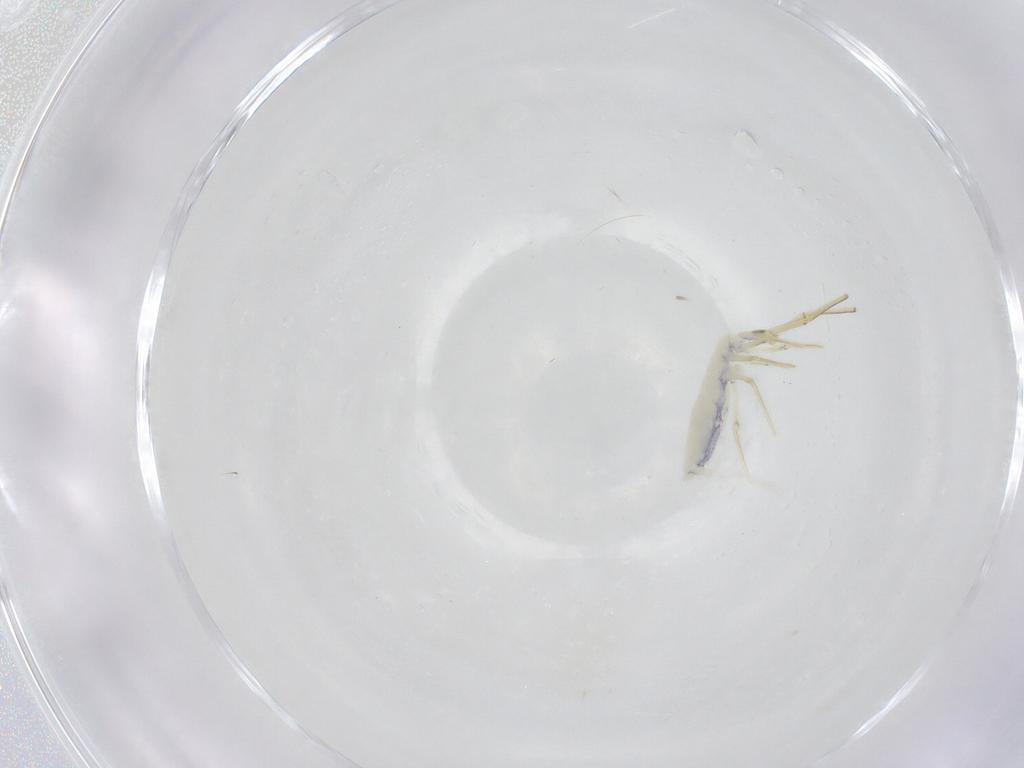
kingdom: Animalia
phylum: Arthropoda
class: Collembola
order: Entomobryomorpha
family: Entomobryidae
